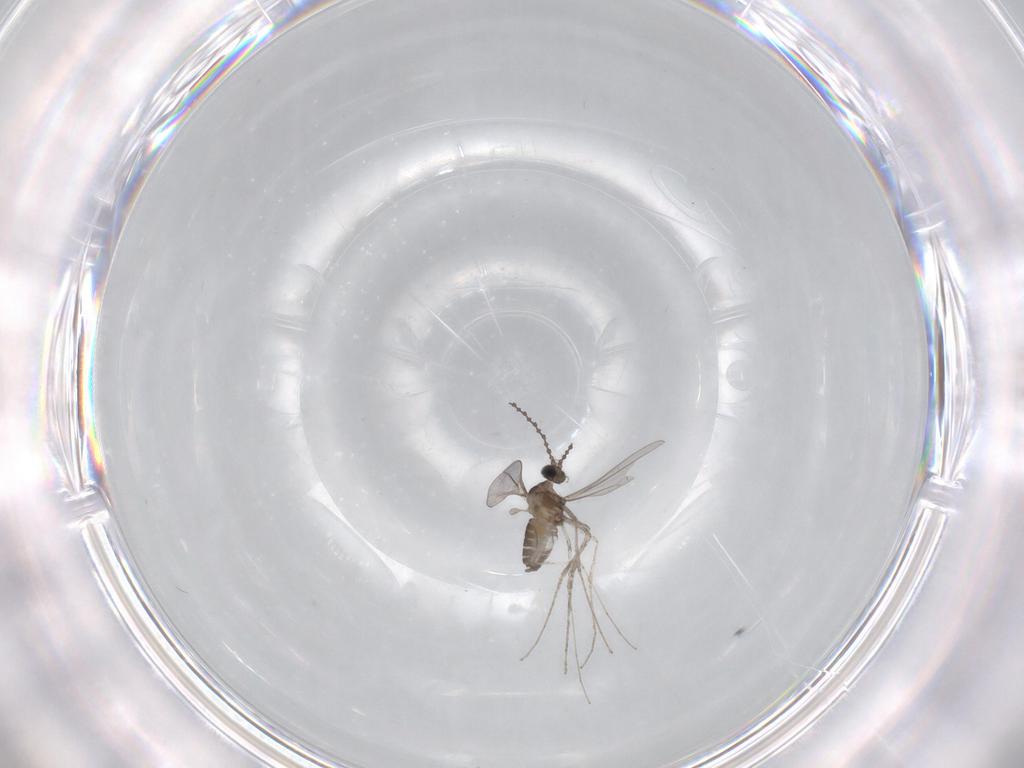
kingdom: Animalia
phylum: Arthropoda
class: Insecta
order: Diptera
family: Cecidomyiidae
